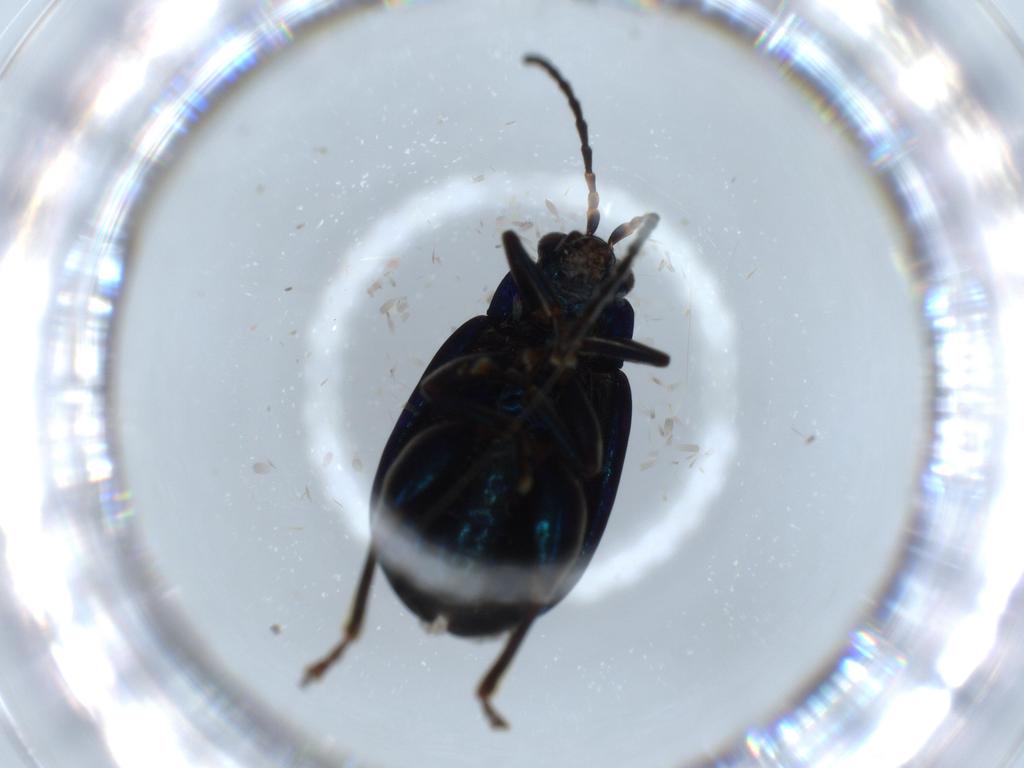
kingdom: Animalia
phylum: Arthropoda
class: Insecta
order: Coleoptera
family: Chrysomelidae
